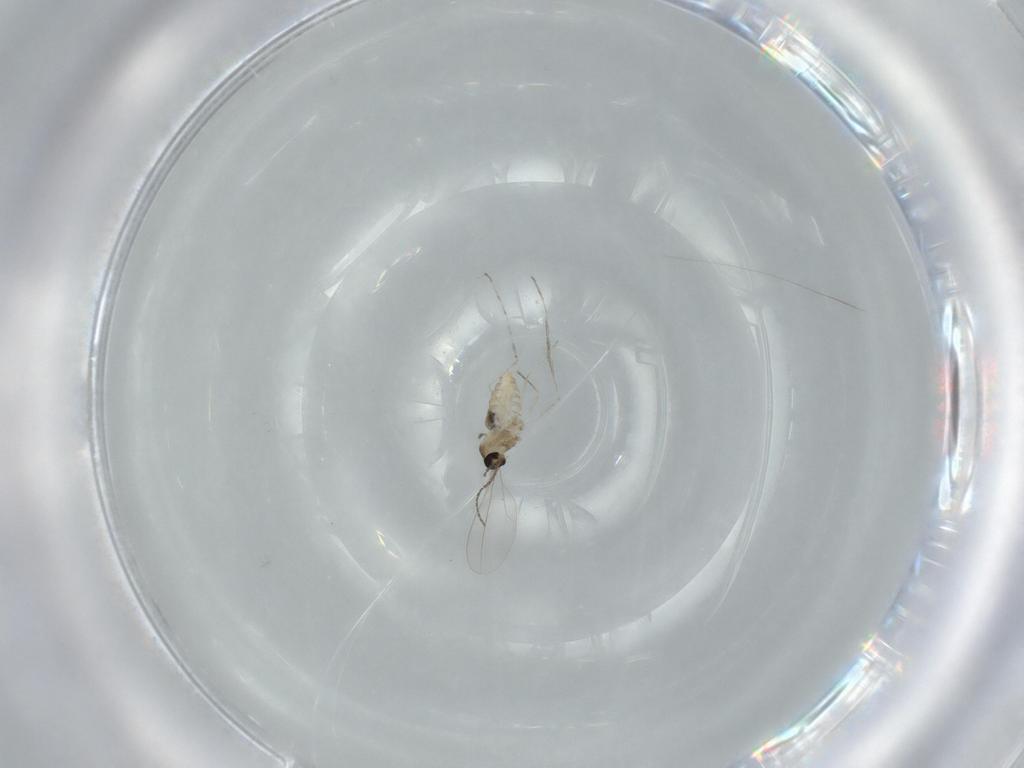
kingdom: Animalia
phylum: Arthropoda
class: Insecta
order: Diptera
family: Cecidomyiidae
